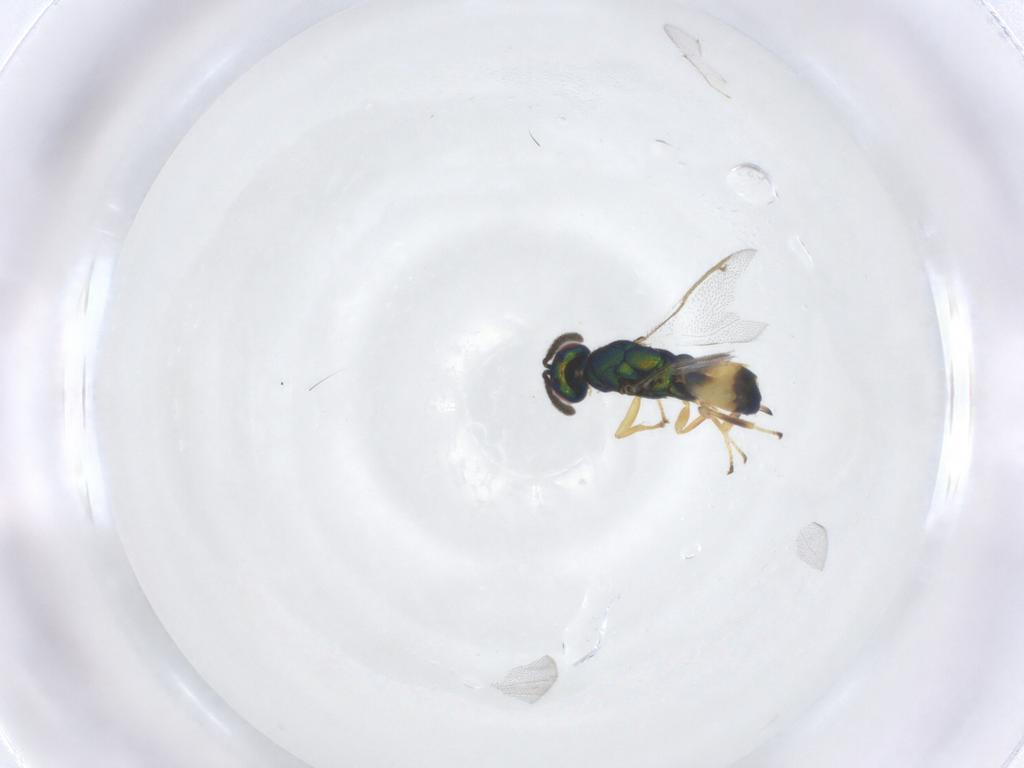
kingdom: Animalia
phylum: Arthropoda
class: Insecta
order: Hymenoptera
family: Torymidae
